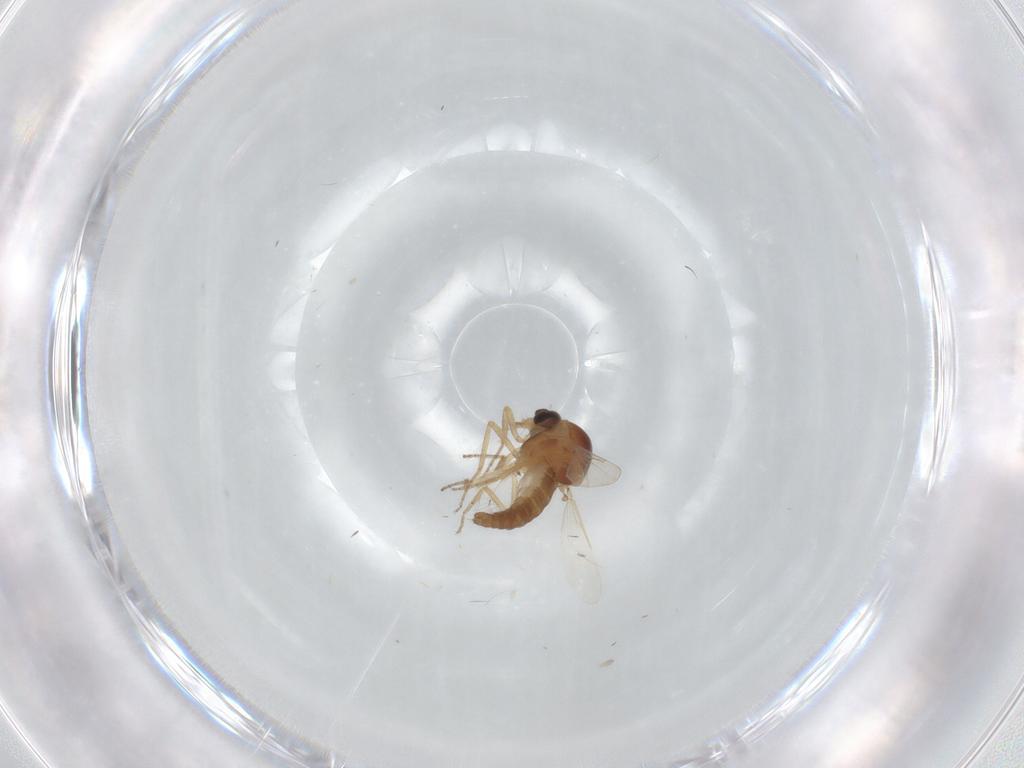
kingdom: Animalia
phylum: Arthropoda
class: Insecta
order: Diptera
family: Ceratopogonidae
